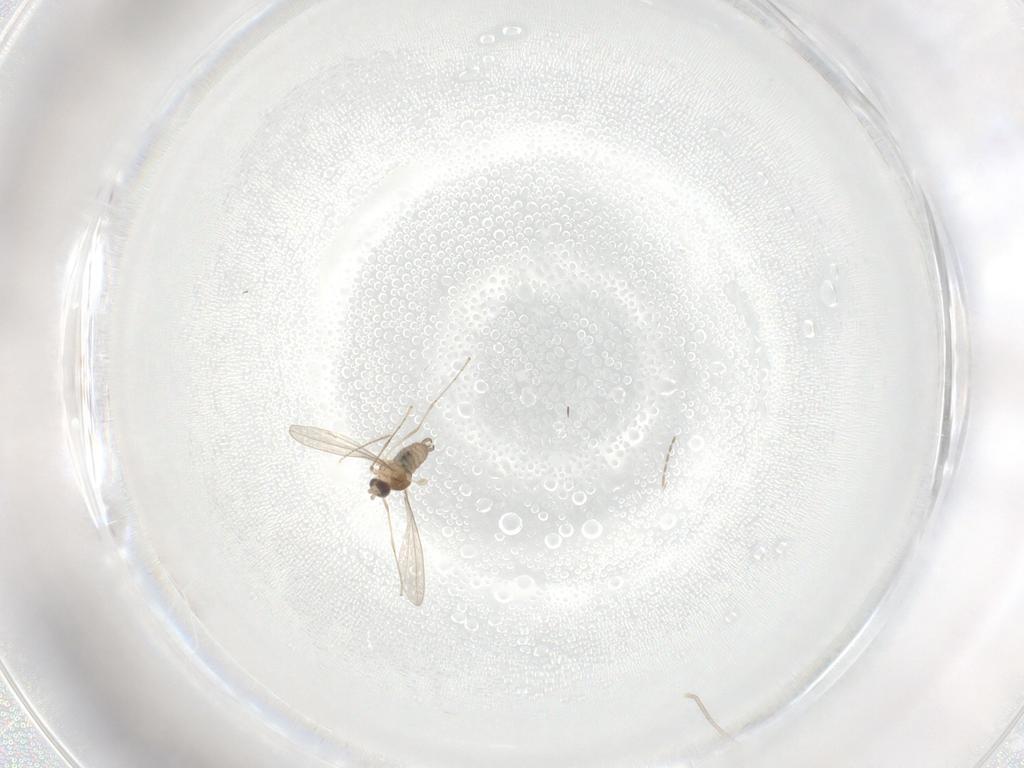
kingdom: Animalia
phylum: Arthropoda
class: Insecta
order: Diptera
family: Cecidomyiidae
